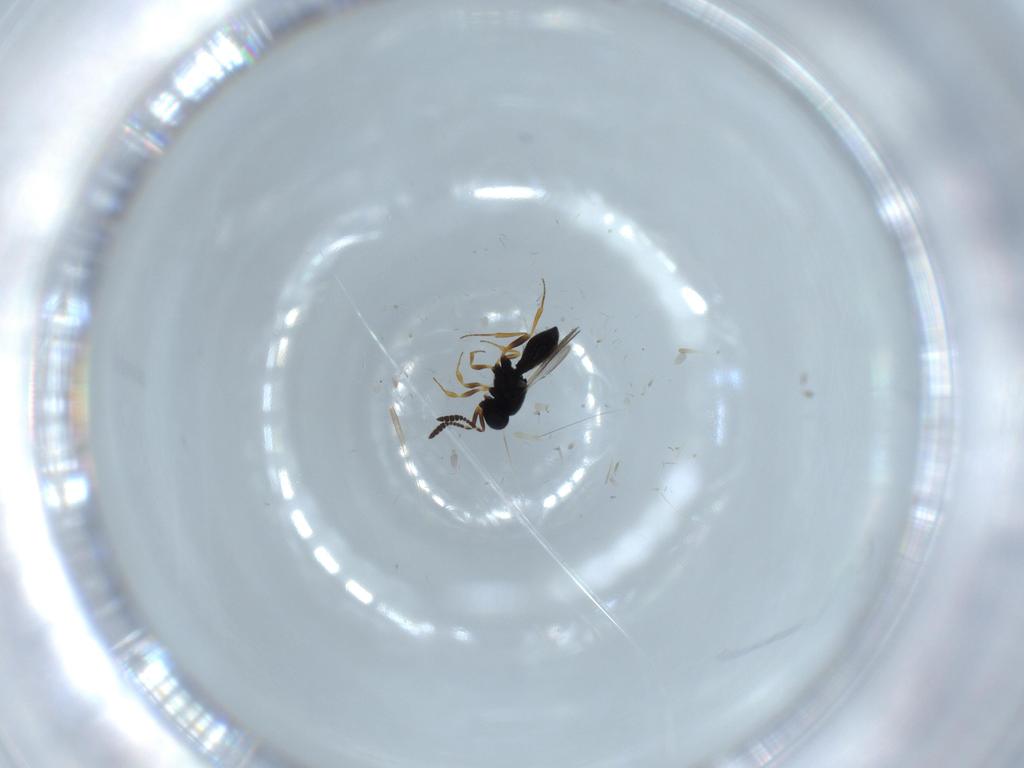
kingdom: Animalia
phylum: Arthropoda
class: Insecta
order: Hymenoptera
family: Scelionidae
